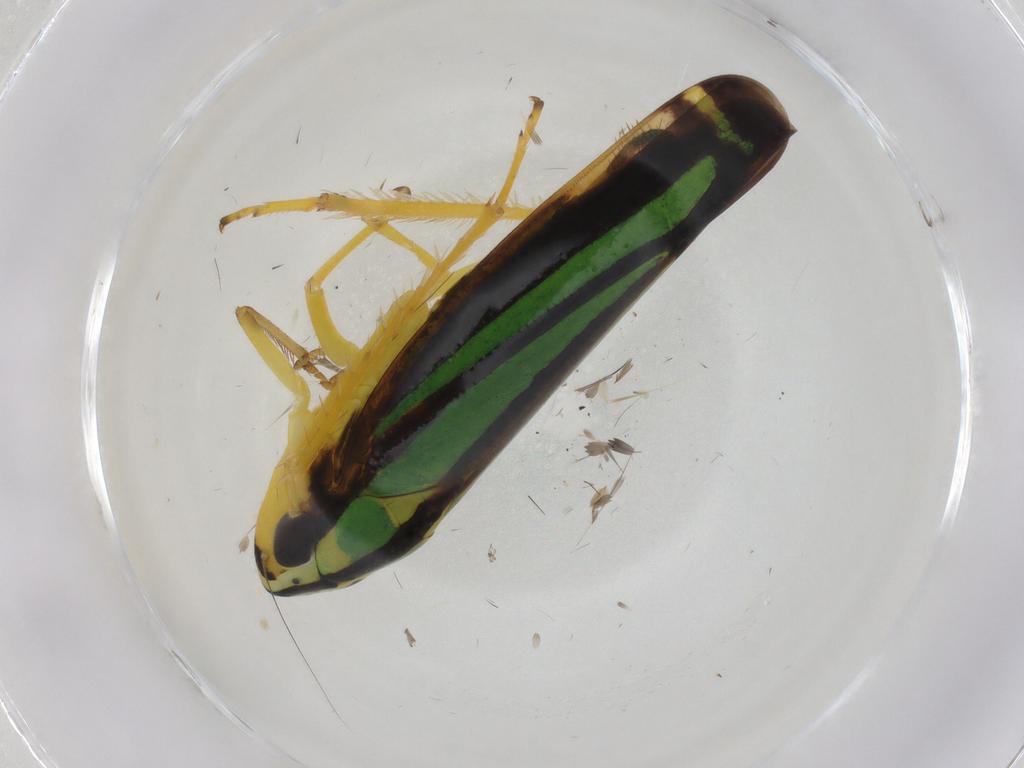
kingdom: Animalia
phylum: Arthropoda
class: Insecta
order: Hemiptera
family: Cicadellidae
